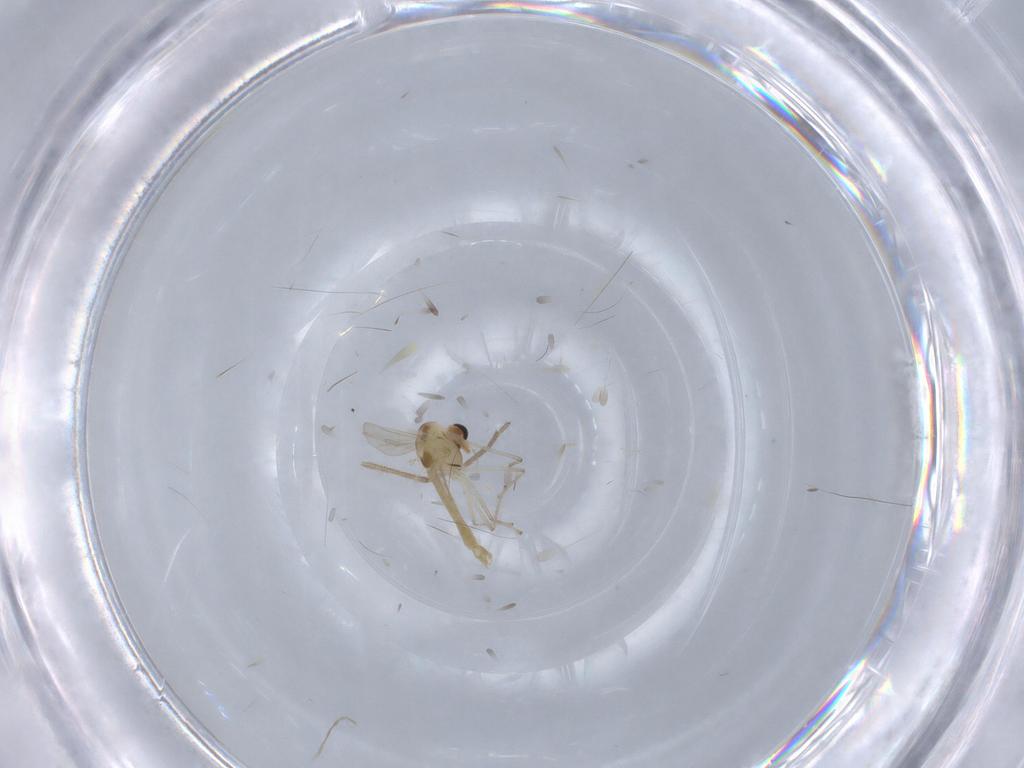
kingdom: Animalia
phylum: Arthropoda
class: Insecta
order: Diptera
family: Chironomidae
